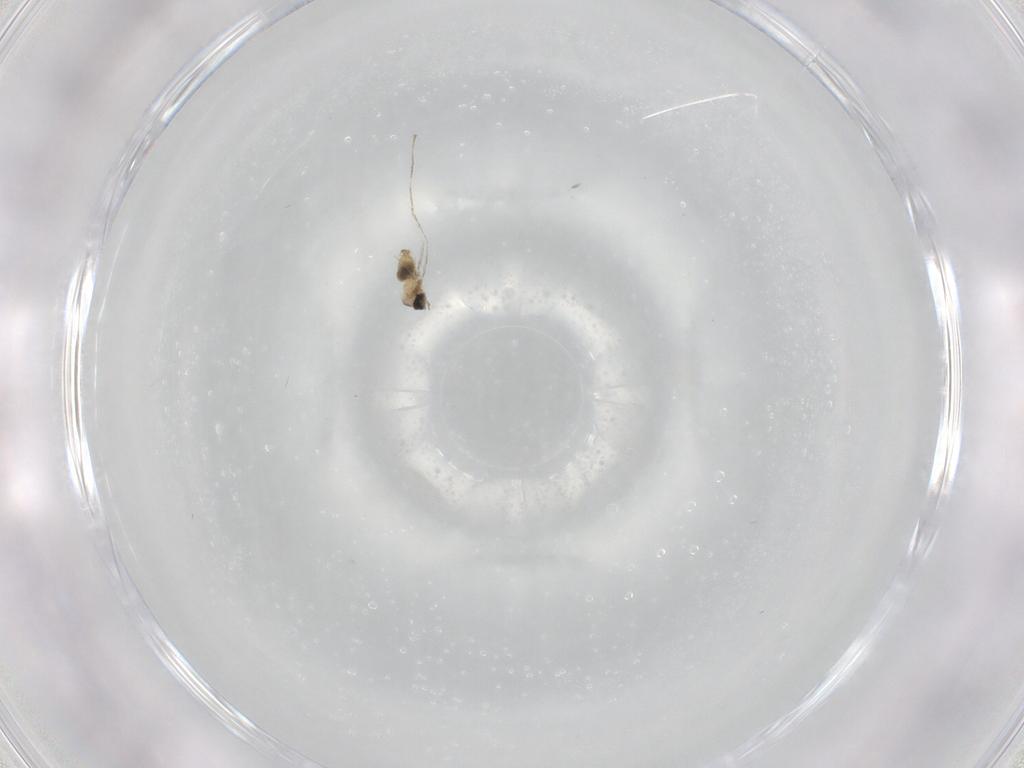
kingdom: Animalia
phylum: Arthropoda
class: Insecta
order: Diptera
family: Cecidomyiidae
